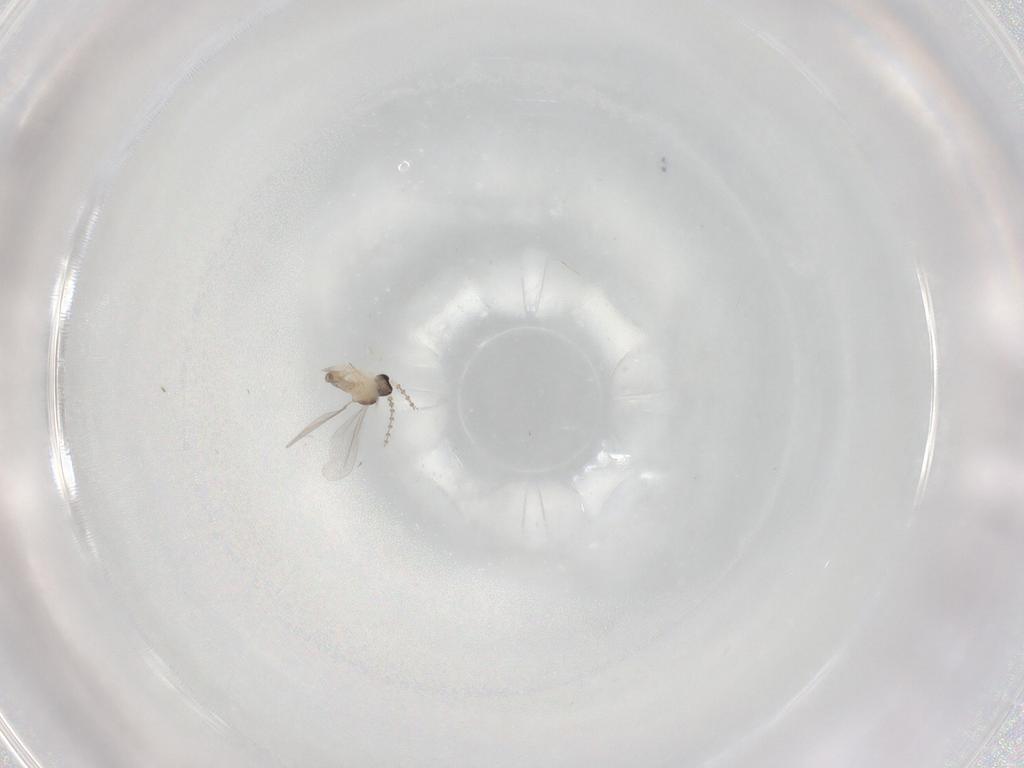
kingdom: Animalia
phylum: Arthropoda
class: Insecta
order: Diptera
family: Cecidomyiidae
